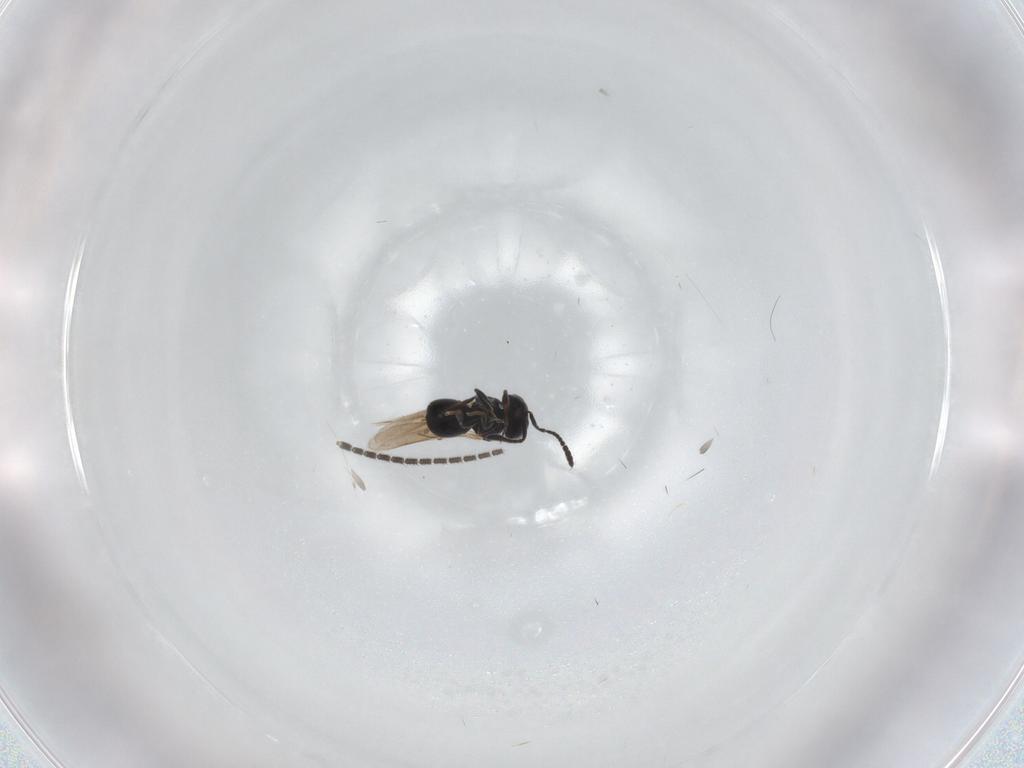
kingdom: Animalia
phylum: Arthropoda
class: Insecta
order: Hymenoptera
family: Scelionidae
